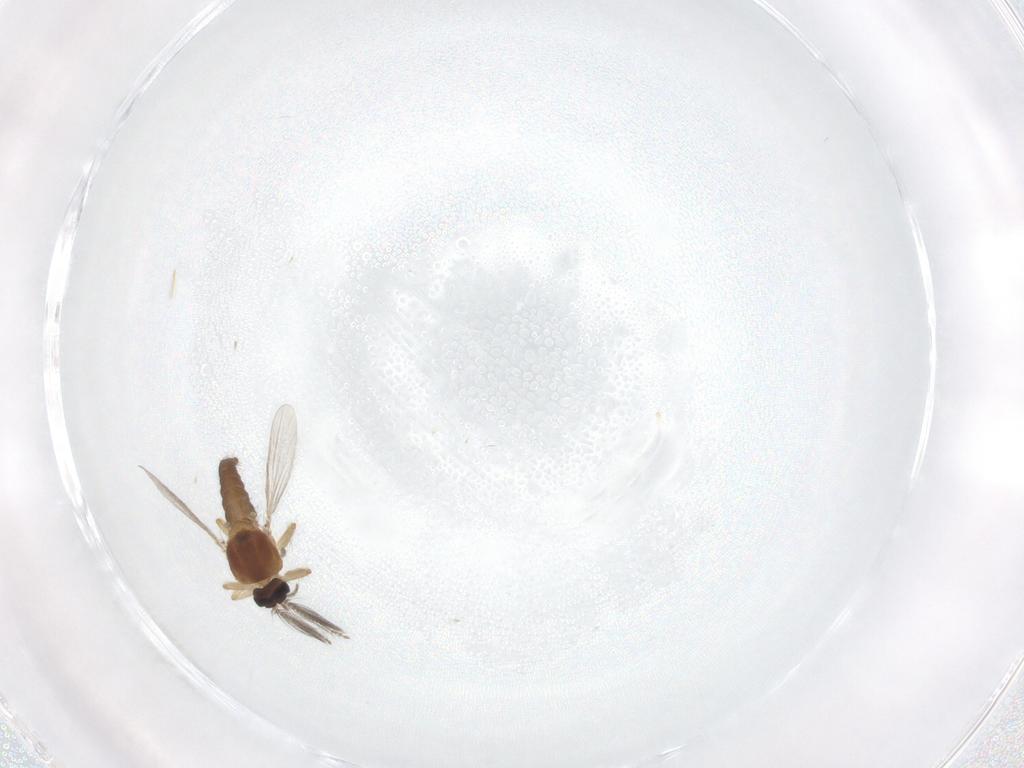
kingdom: Animalia
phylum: Arthropoda
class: Insecta
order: Diptera
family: Ceratopogonidae
